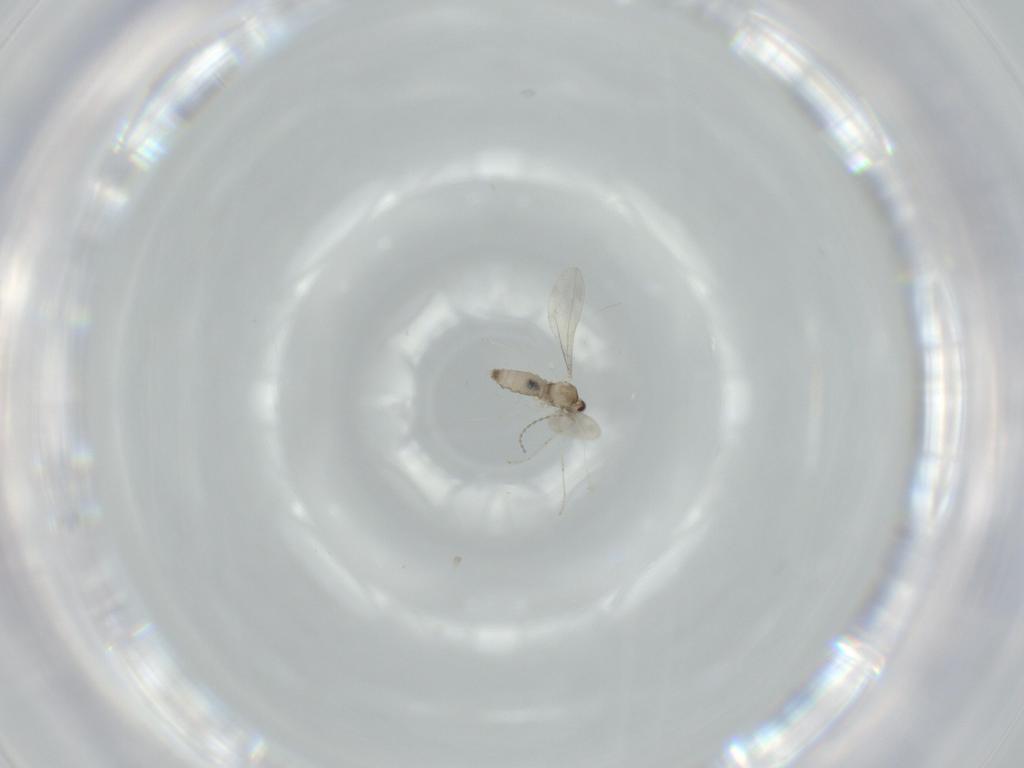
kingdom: Animalia
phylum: Arthropoda
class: Insecta
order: Diptera
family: Cecidomyiidae
